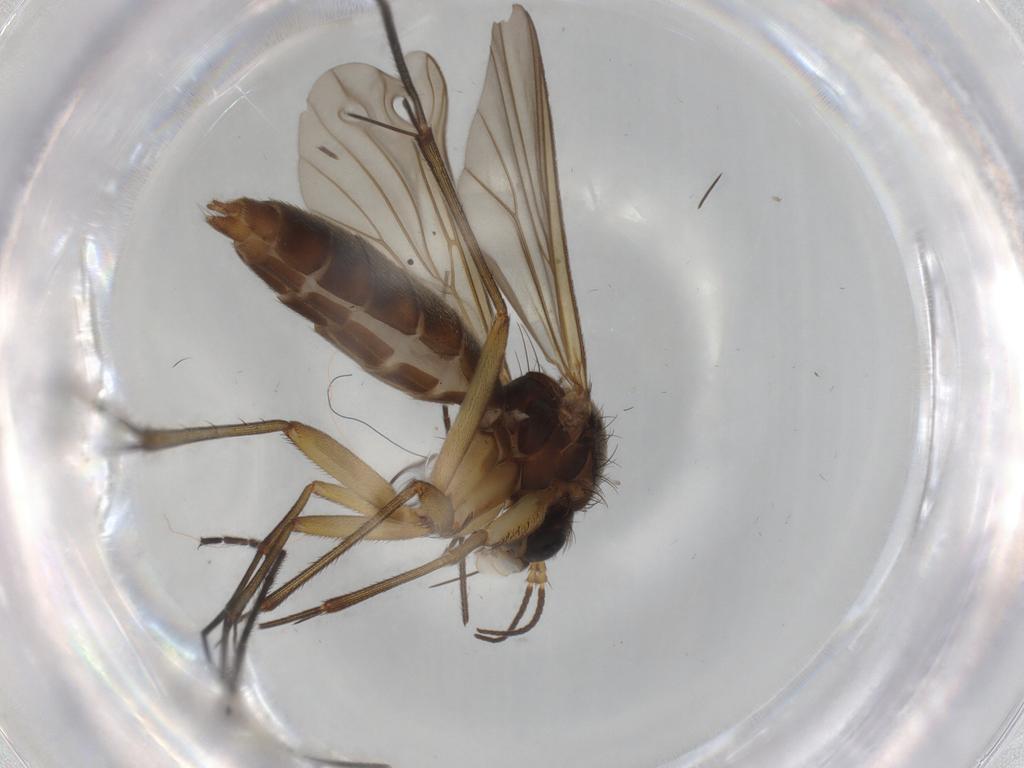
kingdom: Animalia
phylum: Arthropoda
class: Insecta
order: Diptera
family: Mycetophilidae
